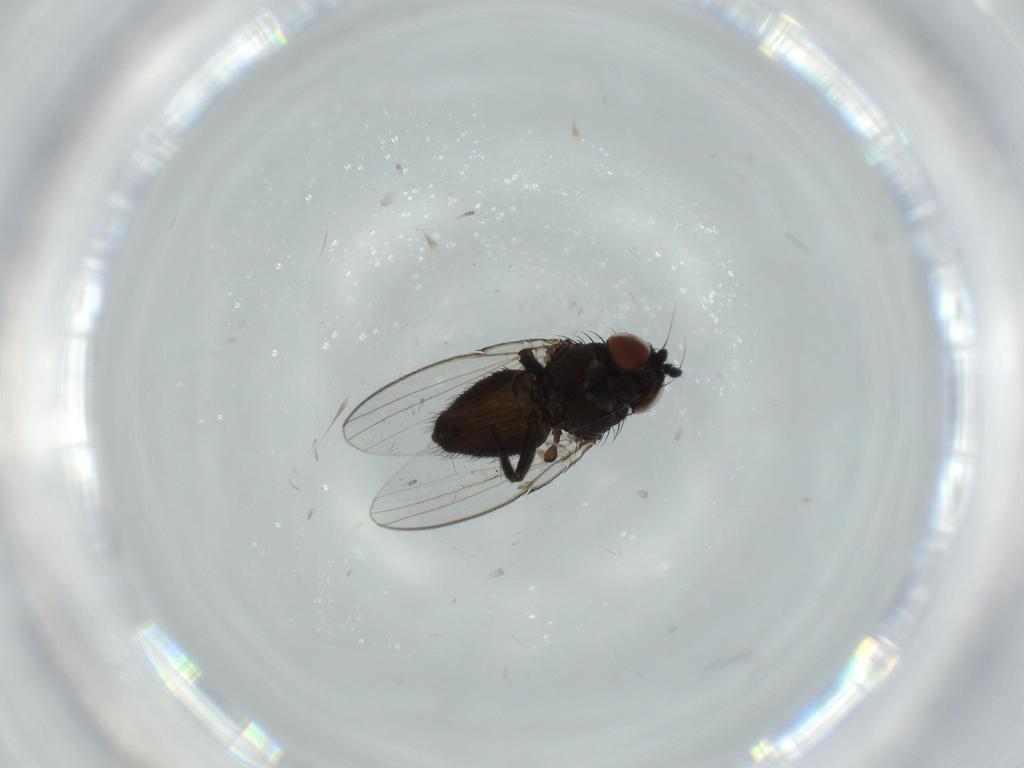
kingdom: Animalia
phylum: Arthropoda
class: Insecta
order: Diptera
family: Milichiidae
